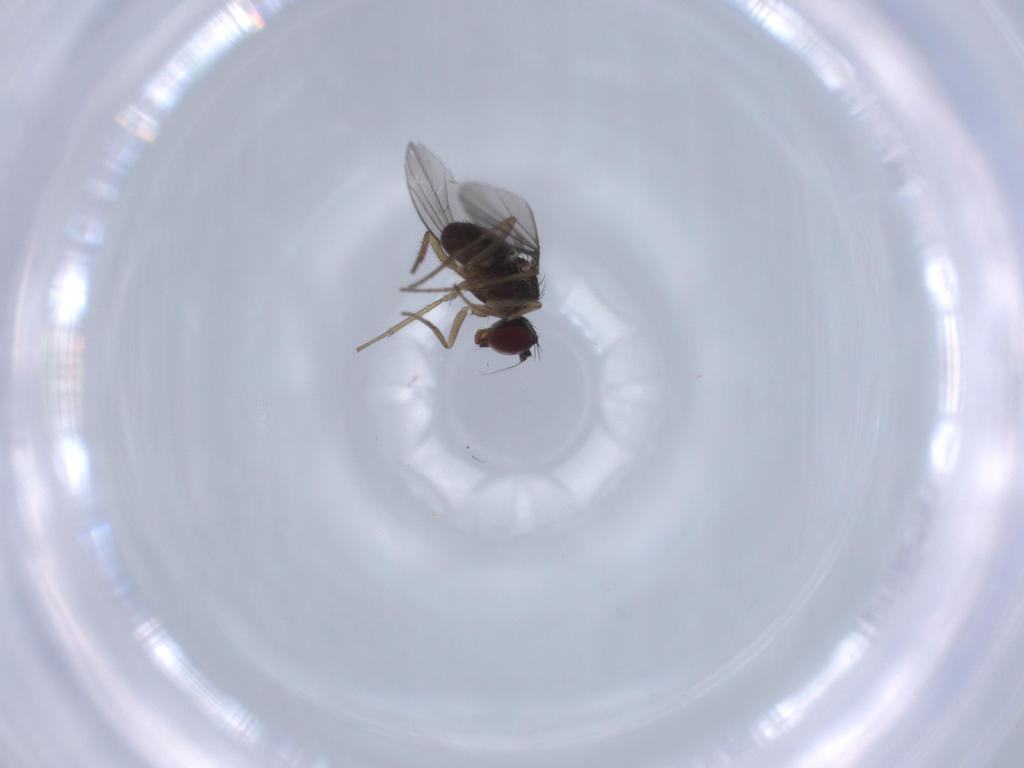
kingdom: Animalia
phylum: Arthropoda
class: Insecta
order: Diptera
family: Dolichopodidae
